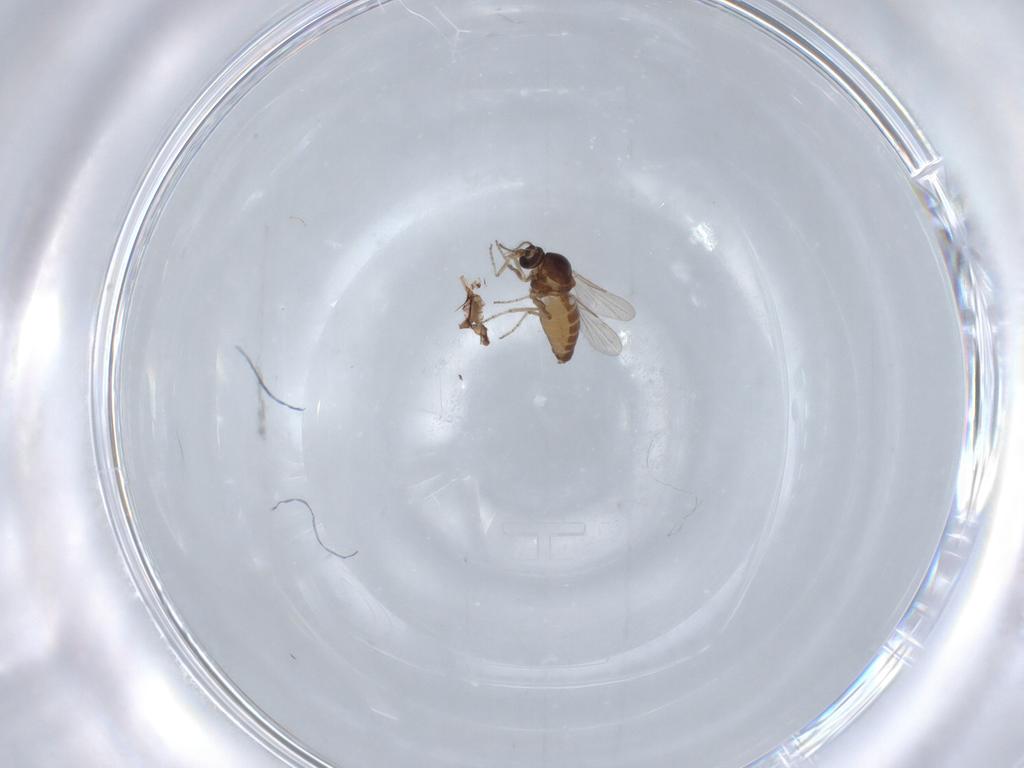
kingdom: Animalia
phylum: Arthropoda
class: Insecta
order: Diptera
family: Ceratopogonidae
